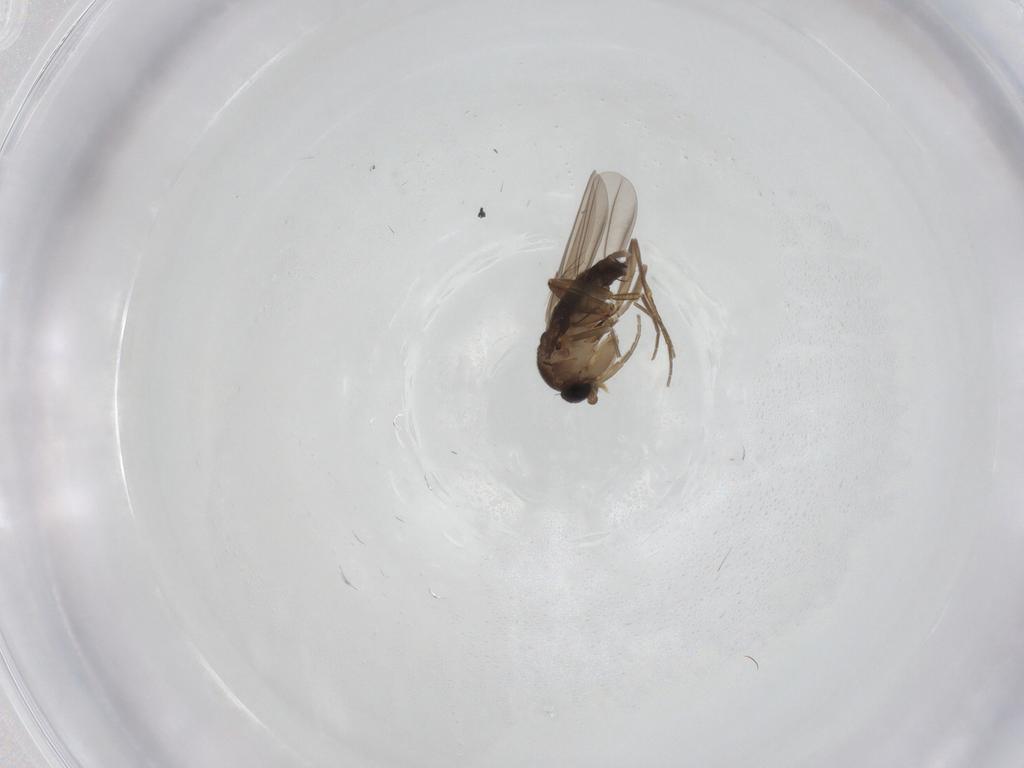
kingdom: Animalia
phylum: Arthropoda
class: Insecta
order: Diptera
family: Phoridae
